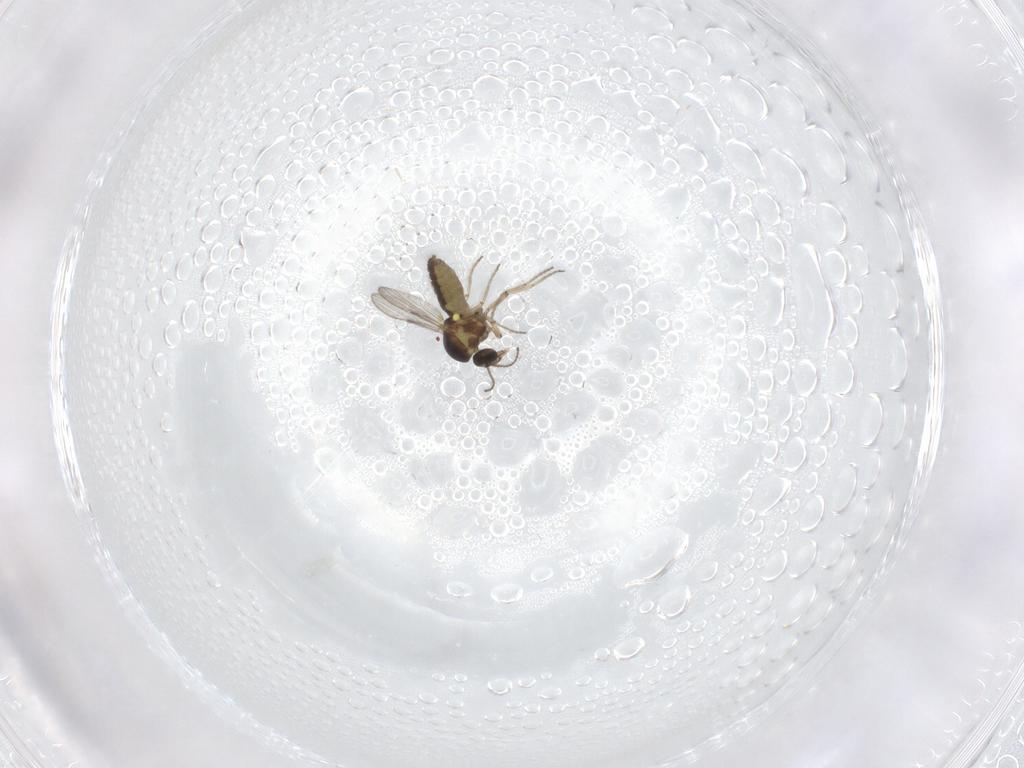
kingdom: Animalia
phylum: Arthropoda
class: Insecta
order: Diptera
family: Ceratopogonidae
